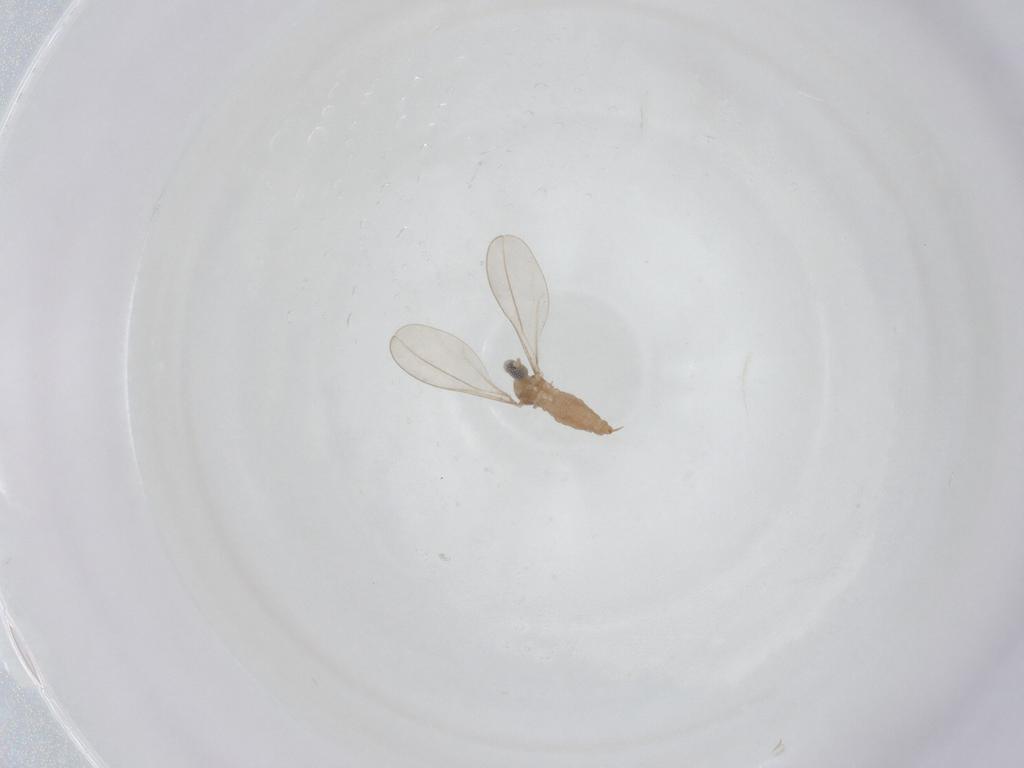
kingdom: Animalia
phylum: Arthropoda
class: Insecta
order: Diptera
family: Cecidomyiidae
